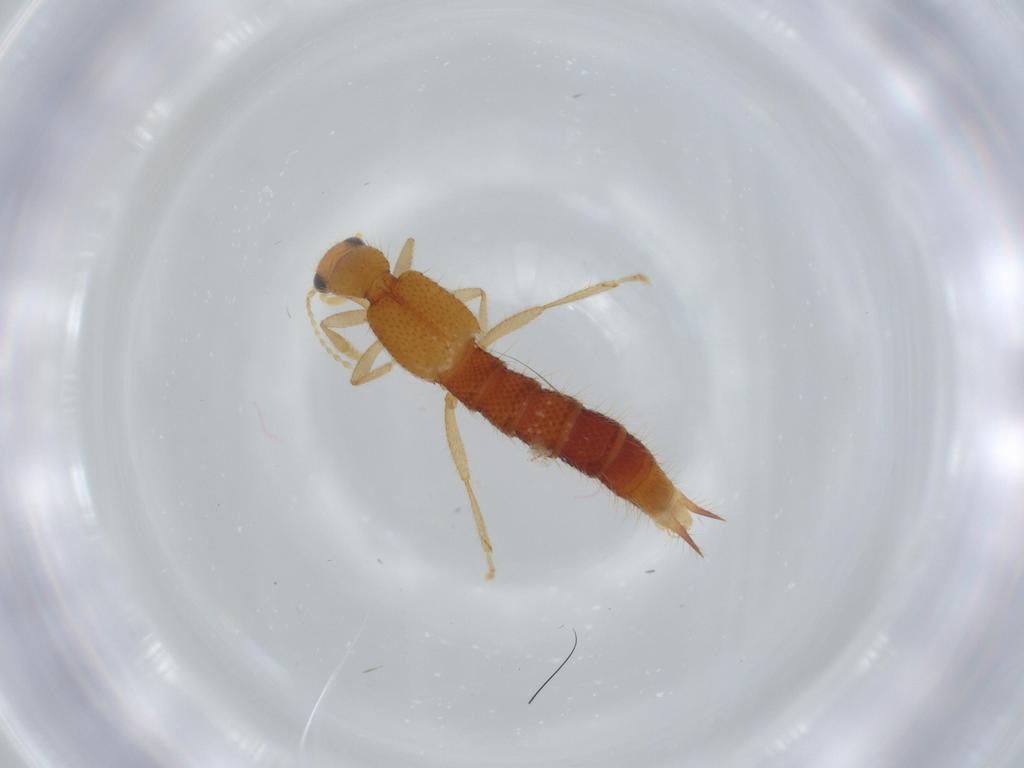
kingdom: Animalia
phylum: Arthropoda
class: Insecta
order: Coleoptera
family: Staphylinidae
